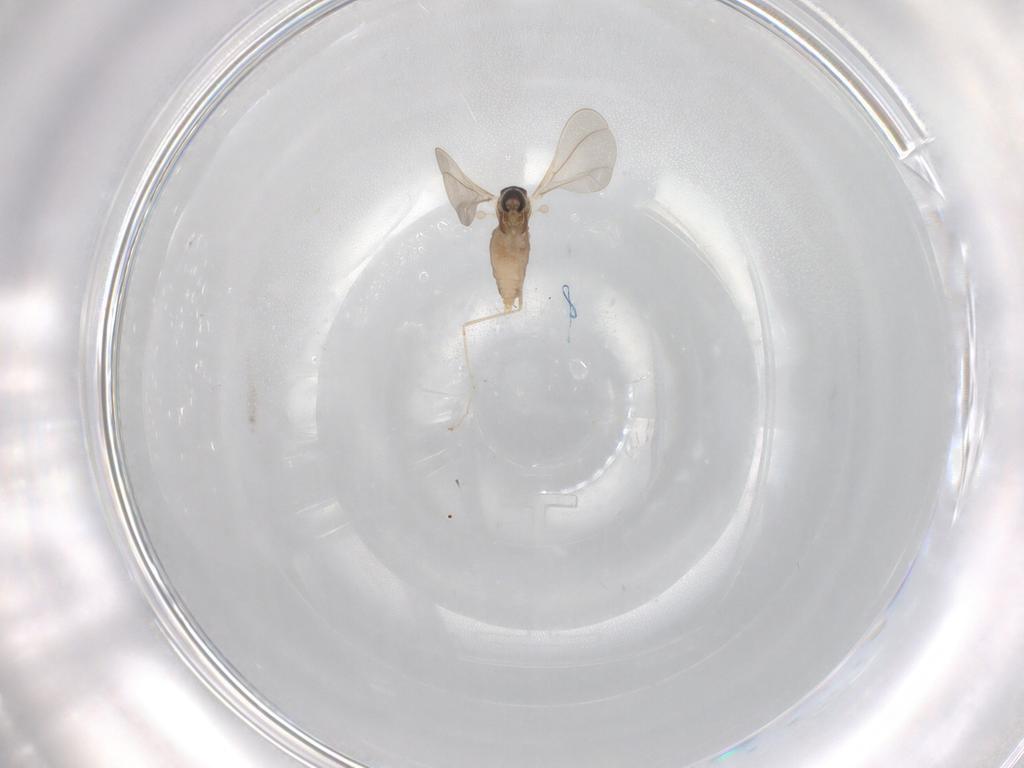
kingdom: Animalia
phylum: Arthropoda
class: Insecta
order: Diptera
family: Cecidomyiidae
